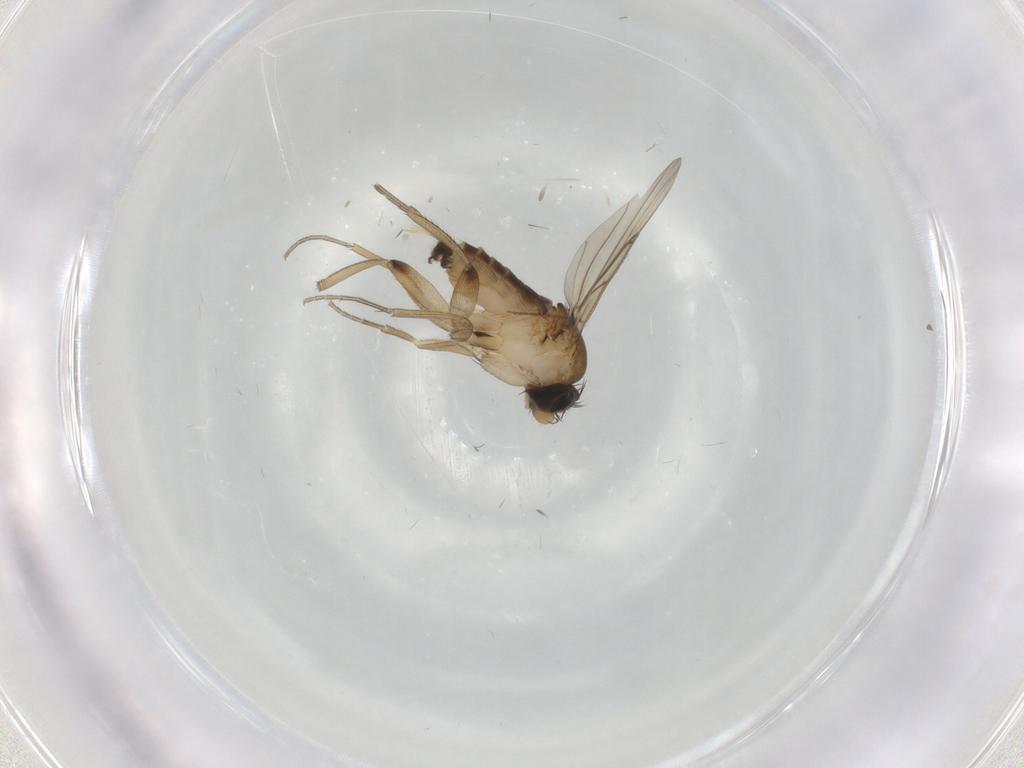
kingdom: Animalia
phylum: Arthropoda
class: Insecta
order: Diptera
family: Phoridae
